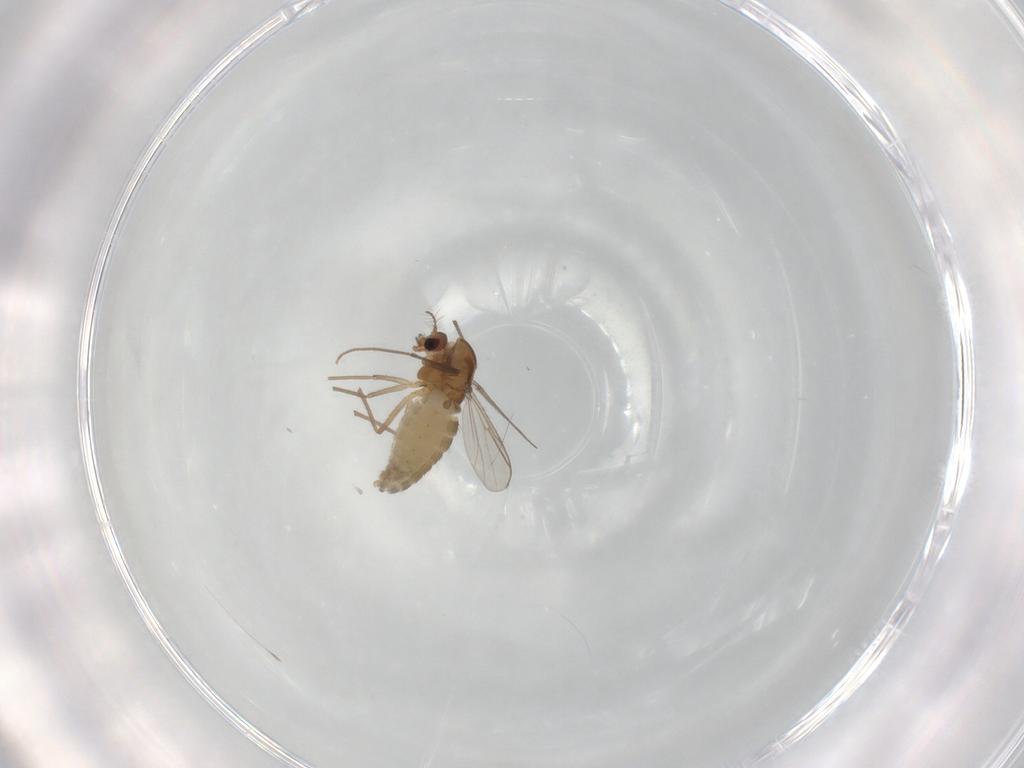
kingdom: Animalia
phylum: Arthropoda
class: Insecta
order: Diptera
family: Chironomidae
